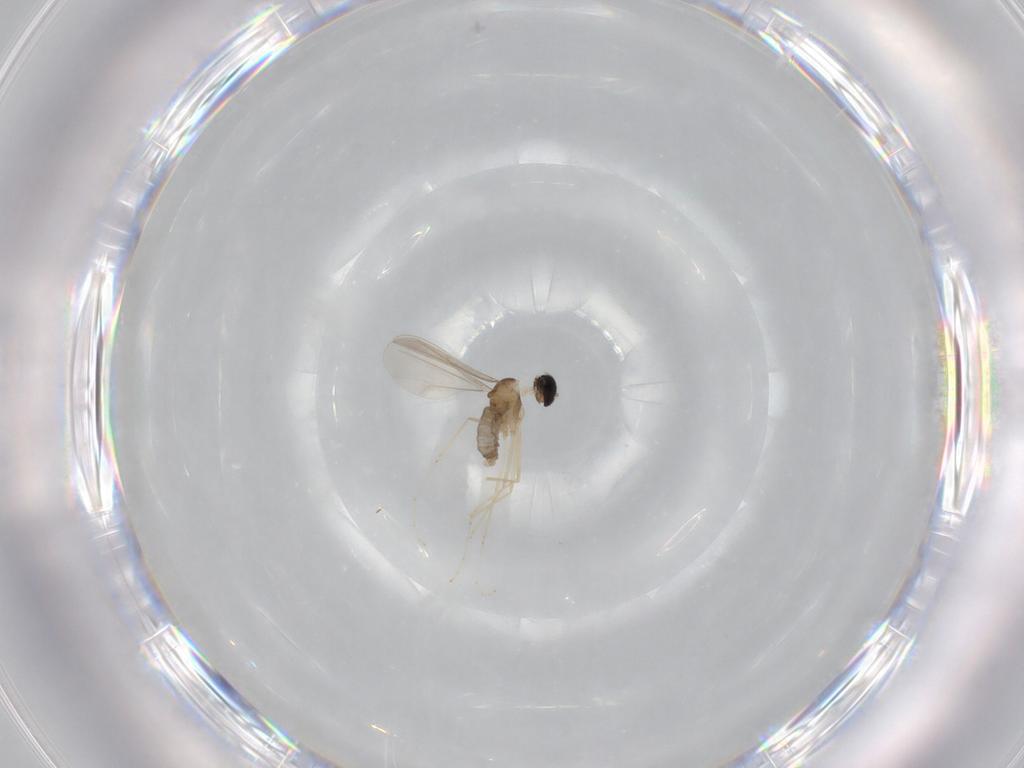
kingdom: Animalia
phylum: Arthropoda
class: Insecta
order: Diptera
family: Cecidomyiidae
